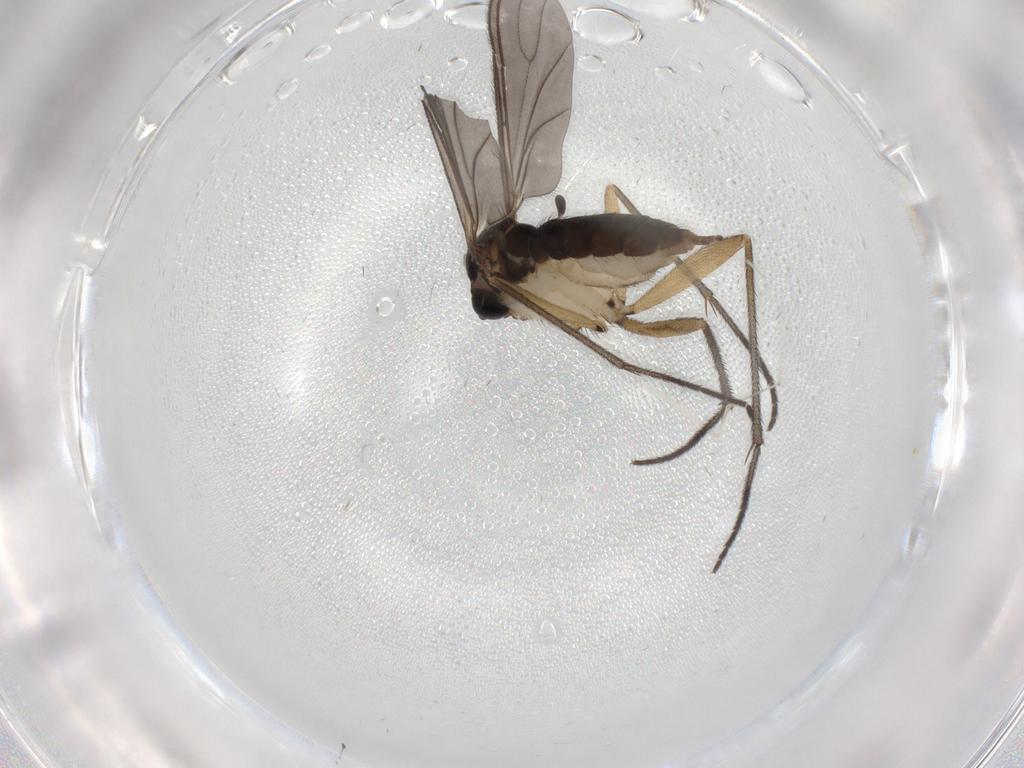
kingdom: Animalia
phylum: Arthropoda
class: Insecta
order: Diptera
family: Cecidomyiidae
